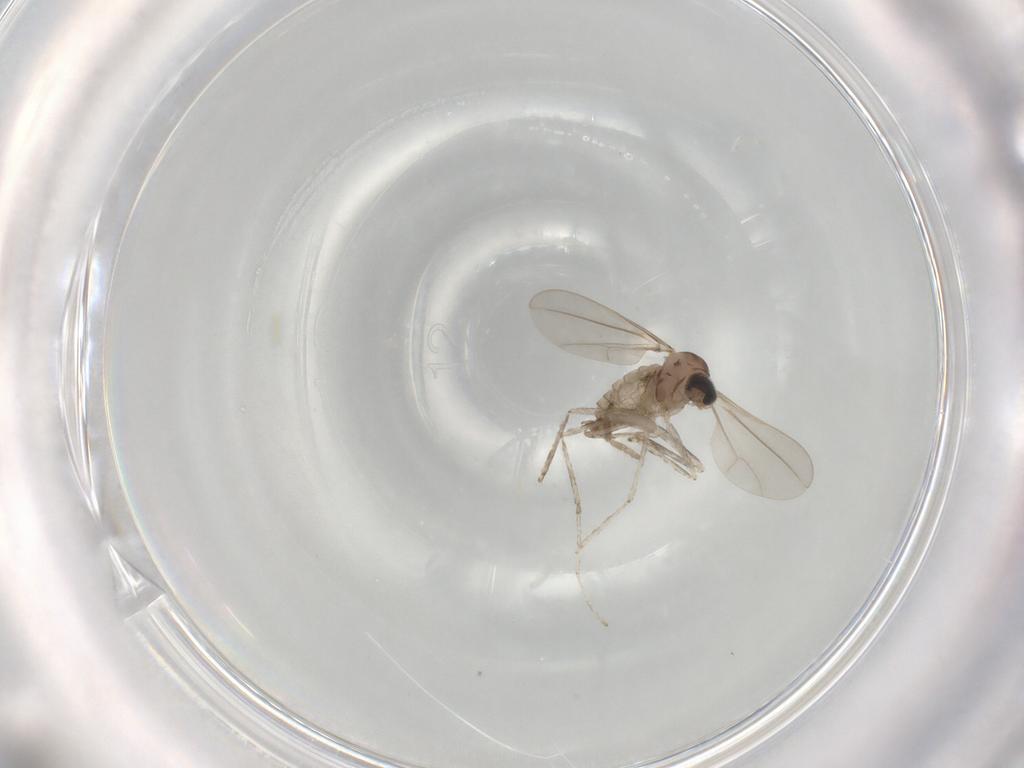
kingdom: Animalia
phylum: Arthropoda
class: Insecta
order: Diptera
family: Cecidomyiidae
